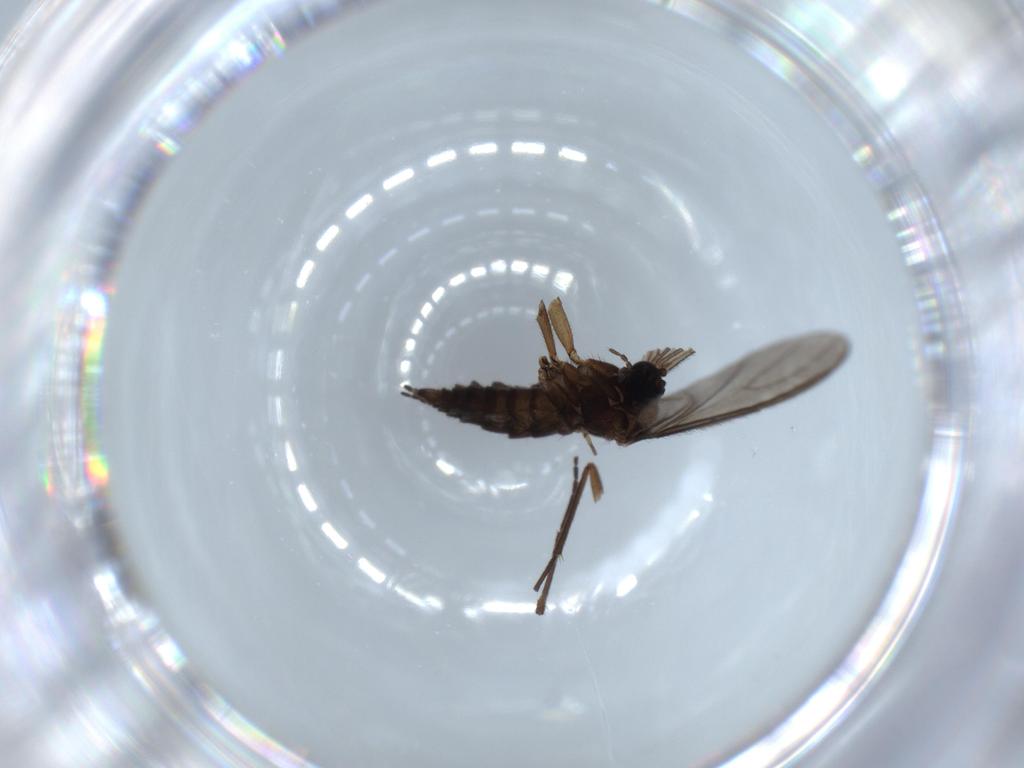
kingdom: Animalia
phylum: Arthropoda
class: Insecta
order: Diptera
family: Sciaridae
